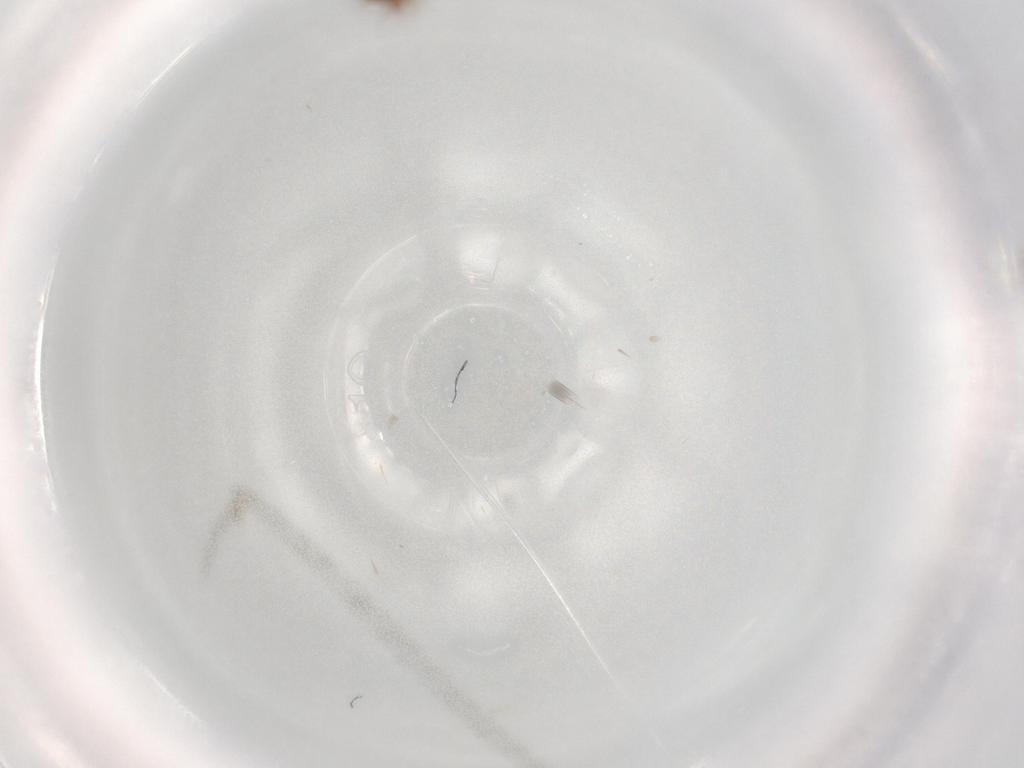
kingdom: Animalia
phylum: Arthropoda
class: Insecta
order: Coleoptera
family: Carabidae
